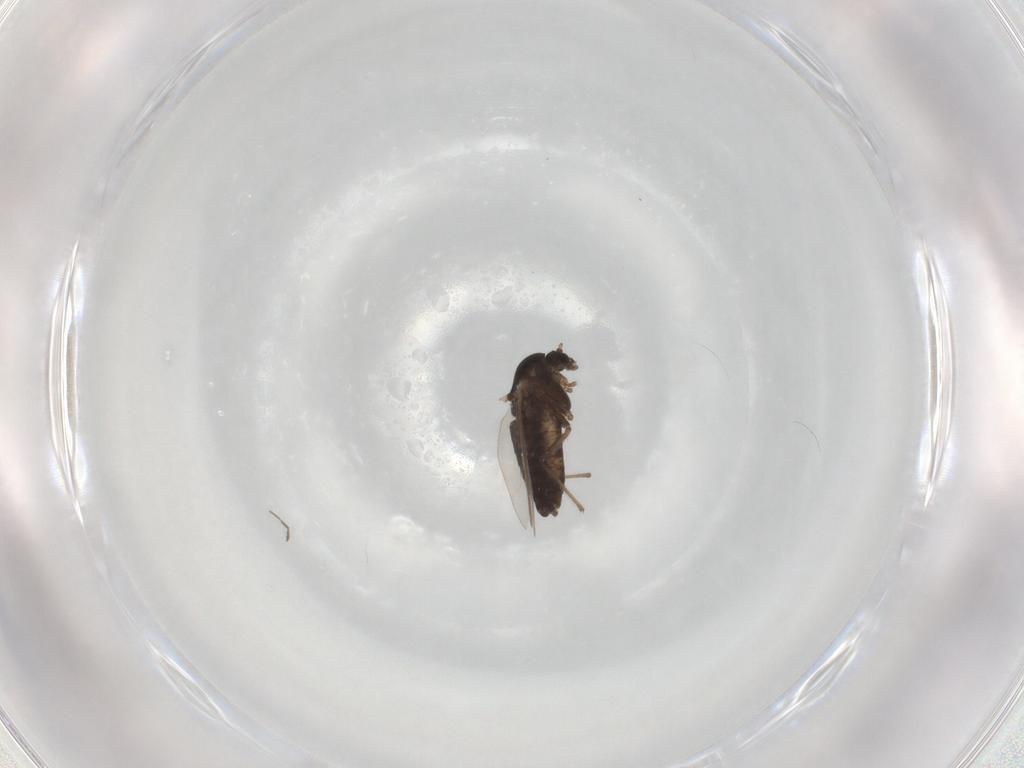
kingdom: Animalia
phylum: Arthropoda
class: Insecta
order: Diptera
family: Chironomidae
